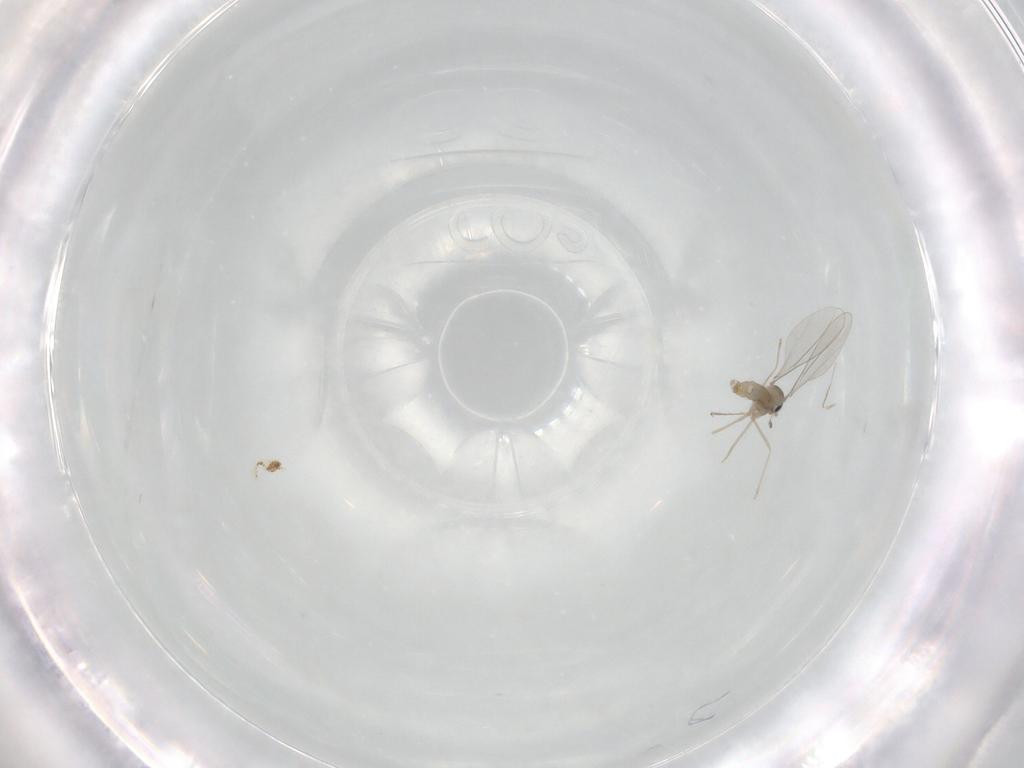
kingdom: Animalia
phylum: Arthropoda
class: Insecta
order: Diptera
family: Cecidomyiidae
